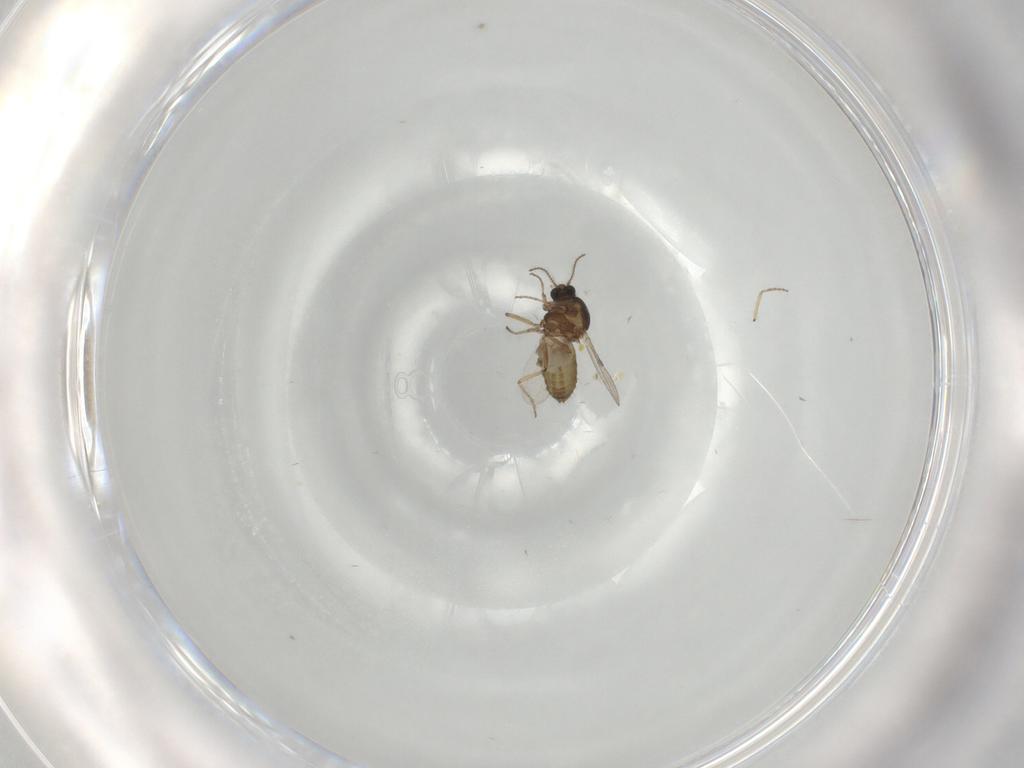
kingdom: Animalia
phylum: Arthropoda
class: Insecta
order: Diptera
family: Ceratopogonidae
